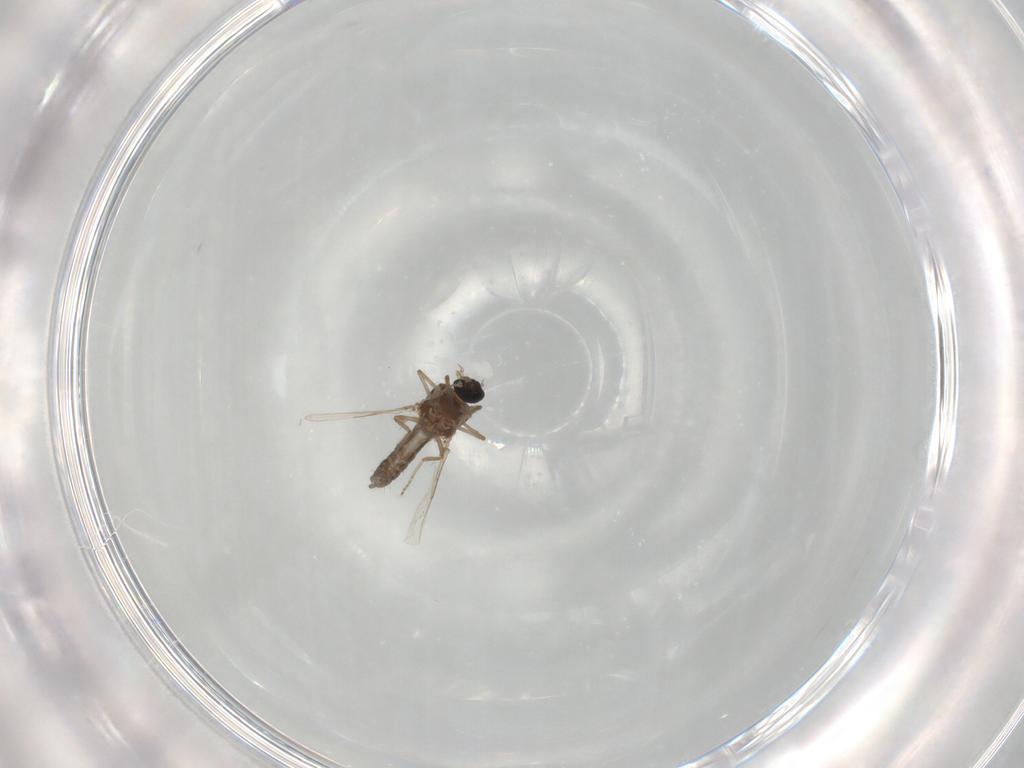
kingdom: Animalia
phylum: Arthropoda
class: Insecta
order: Diptera
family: Ceratopogonidae
